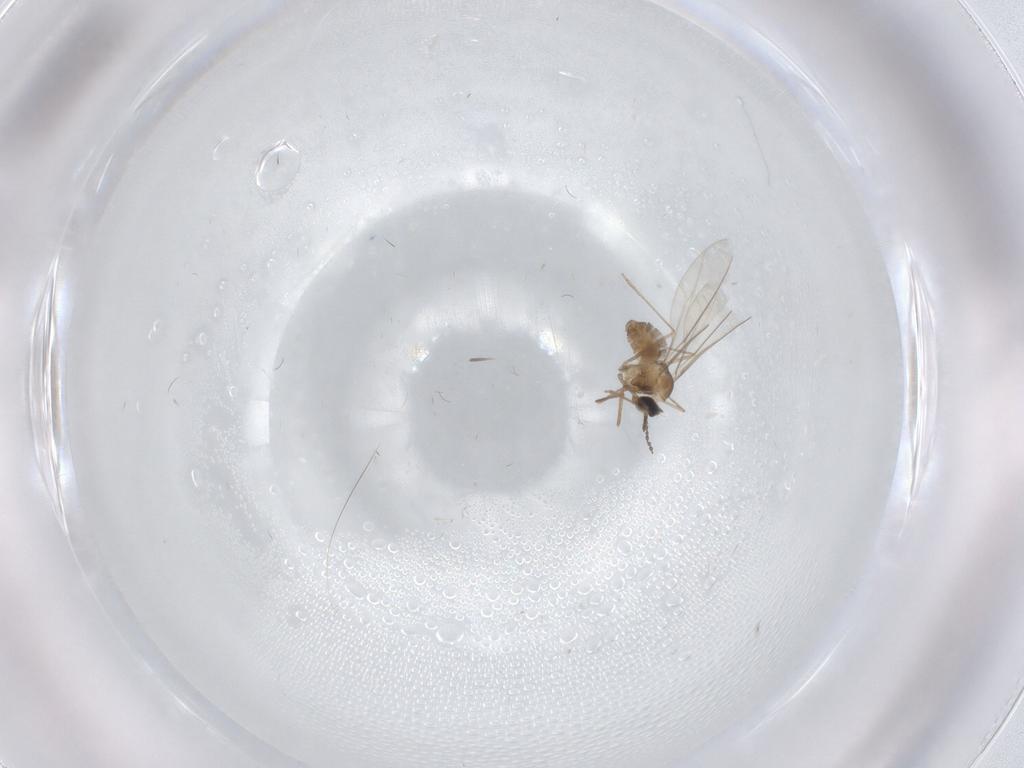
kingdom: Animalia
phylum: Arthropoda
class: Insecta
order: Diptera
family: Cecidomyiidae
